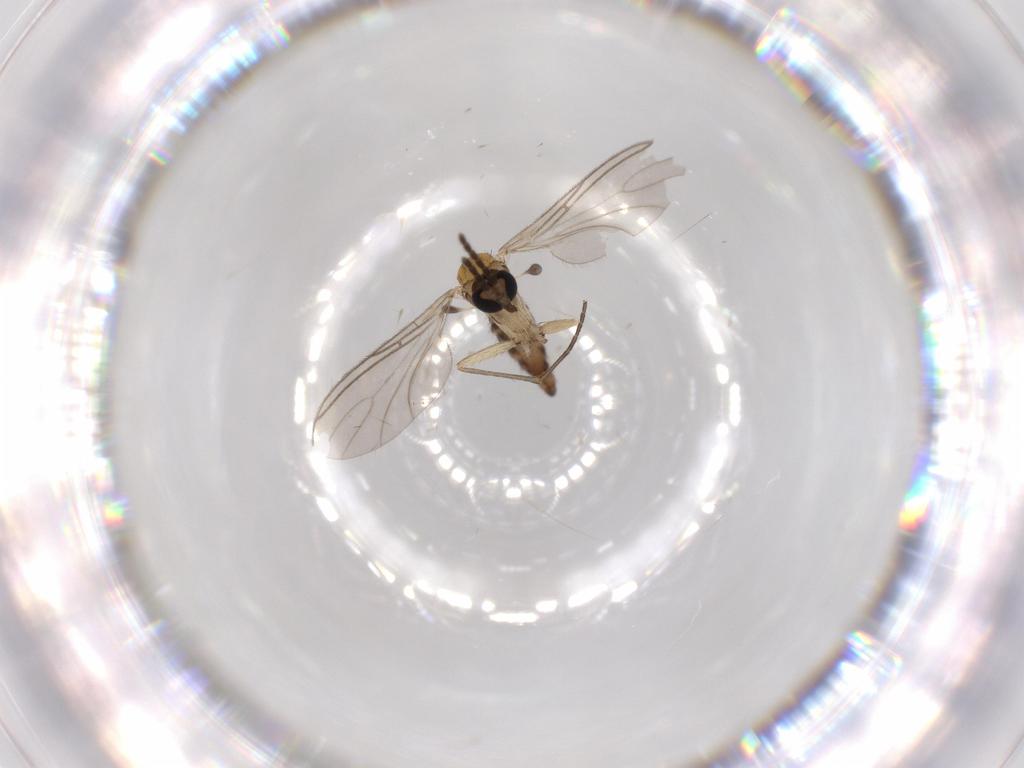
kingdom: Animalia
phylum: Arthropoda
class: Insecta
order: Diptera
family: Sciaridae
